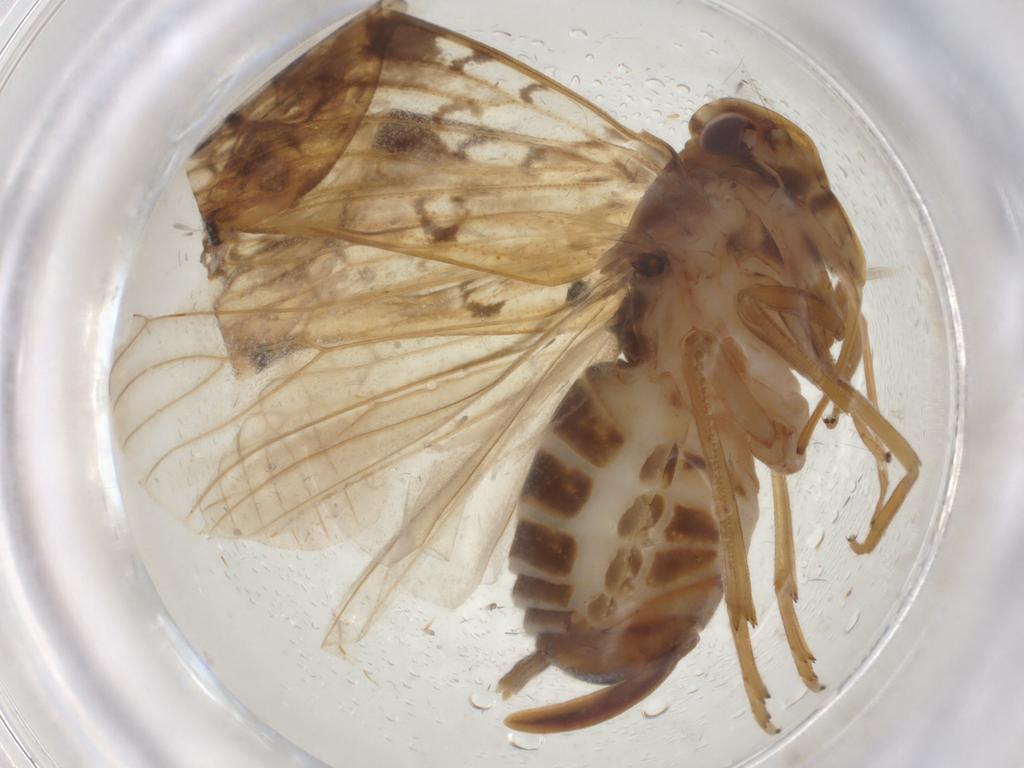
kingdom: Animalia
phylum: Arthropoda
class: Insecta
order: Hemiptera
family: Cixiidae
